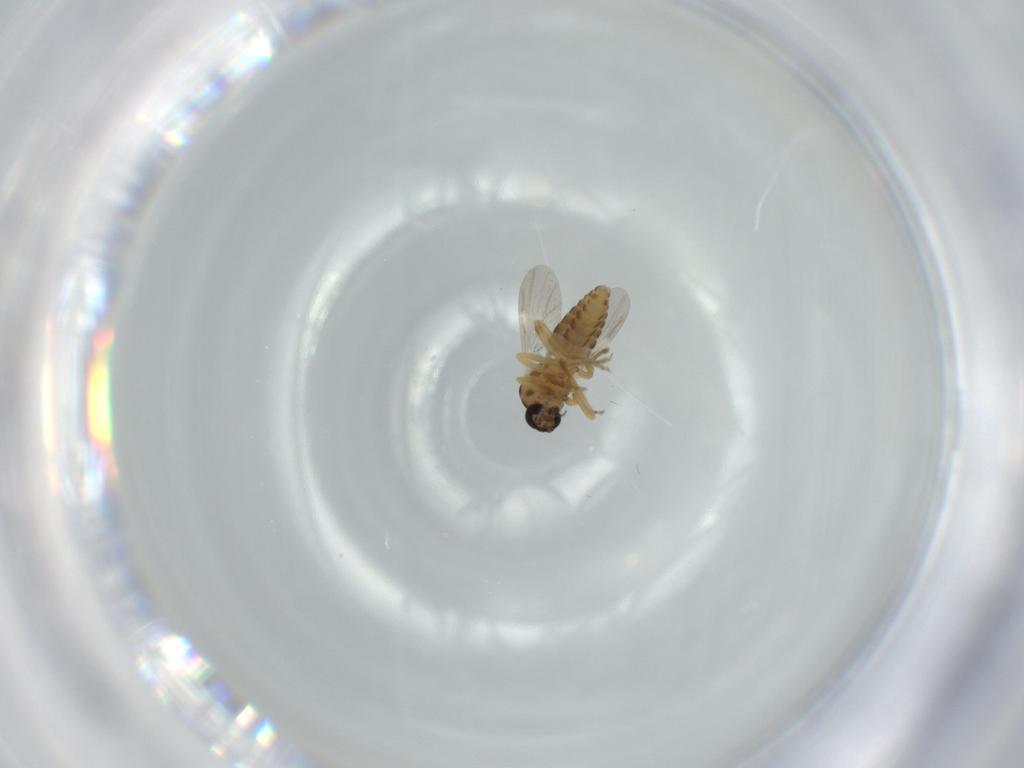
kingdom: Animalia
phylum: Arthropoda
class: Insecta
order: Diptera
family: Ceratopogonidae
